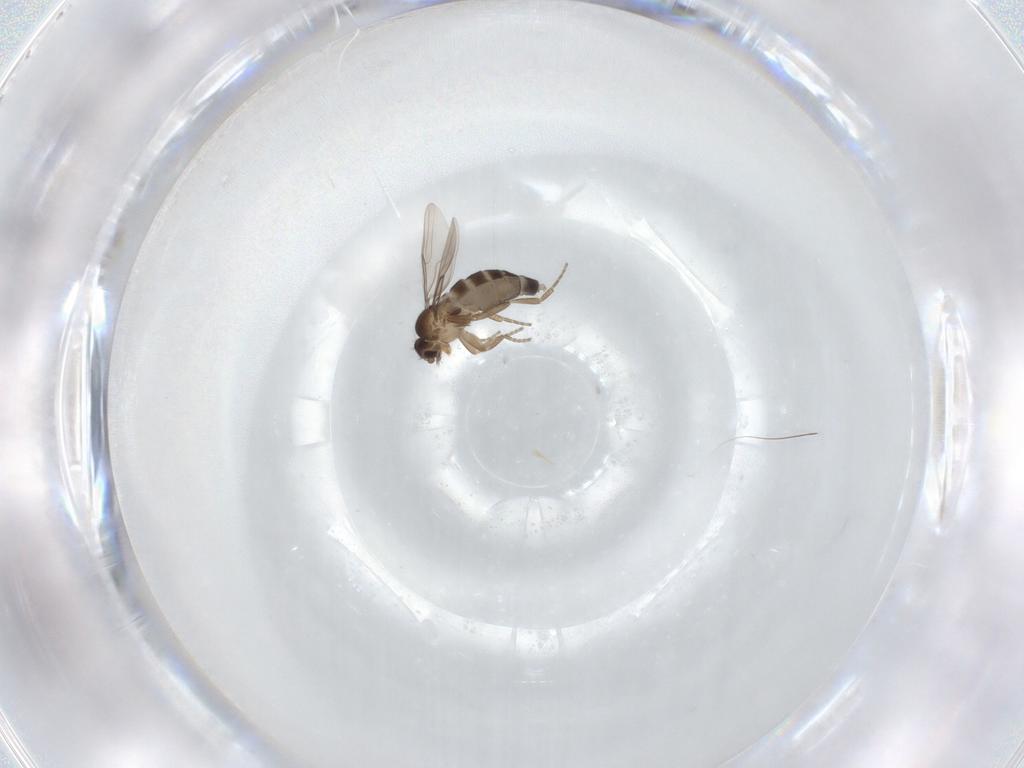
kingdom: Animalia
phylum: Arthropoda
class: Insecta
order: Diptera
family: Phoridae
